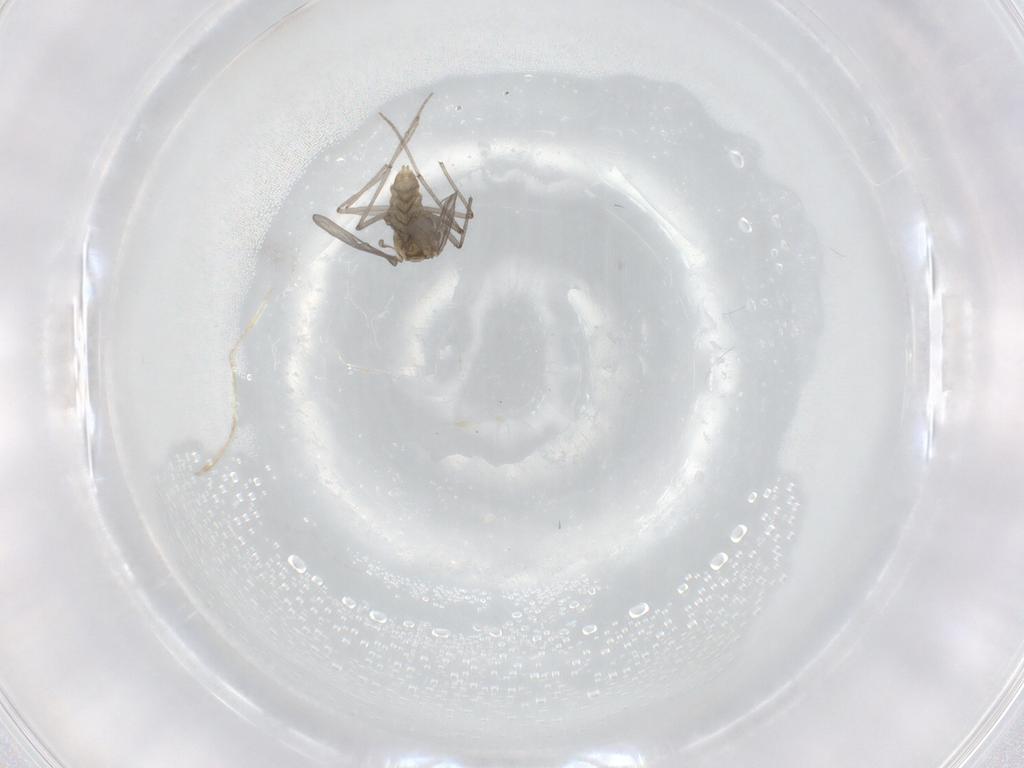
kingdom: Animalia
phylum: Arthropoda
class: Insecta
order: Diptera
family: Chironomidae
